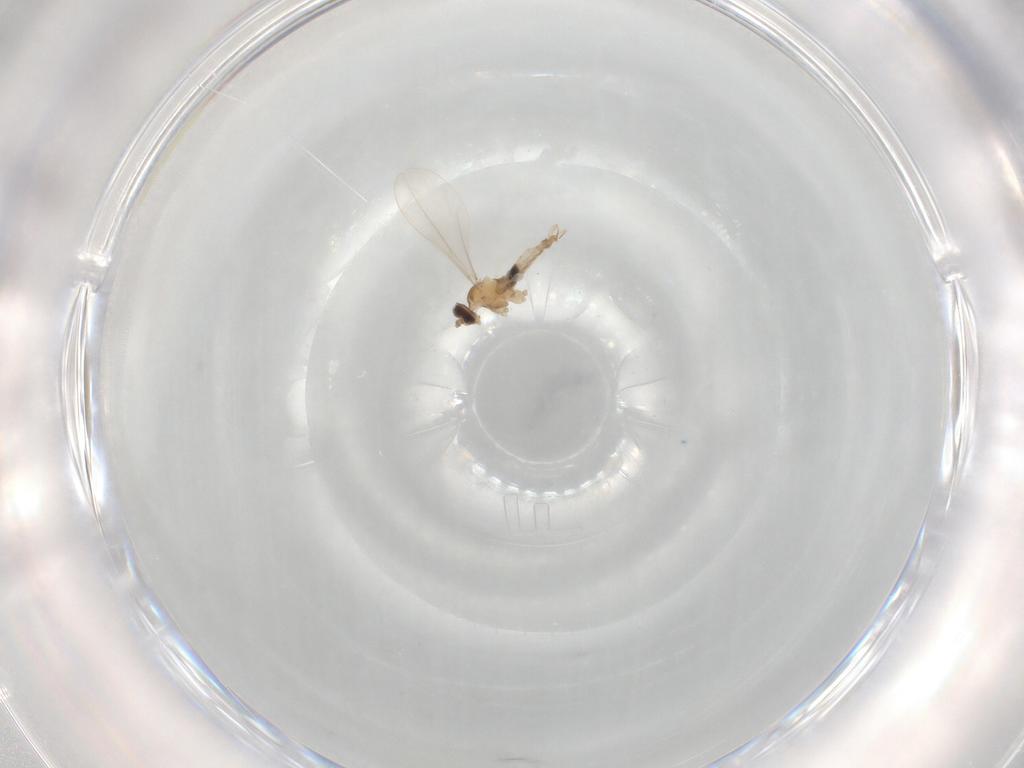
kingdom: Animalia
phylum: Arthropoda
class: Insecta
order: Diptera
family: Cecidomyiidae
